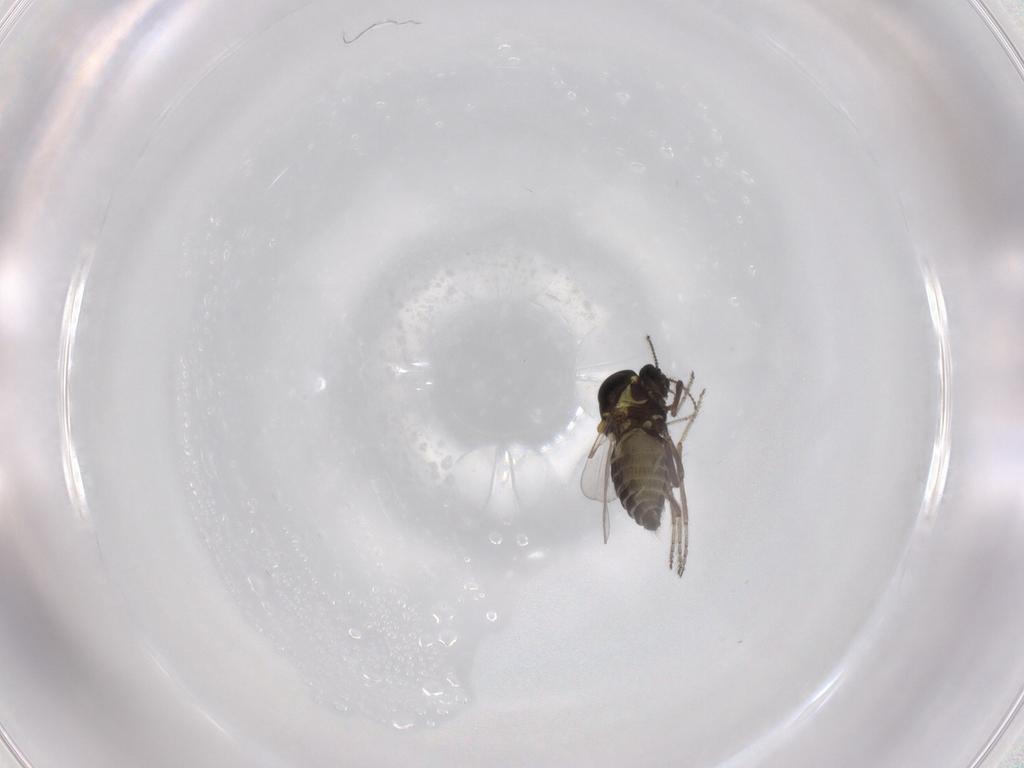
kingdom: Animalia
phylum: Arthropoda
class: Insecta
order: Diptera
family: Ceratopogonidae
